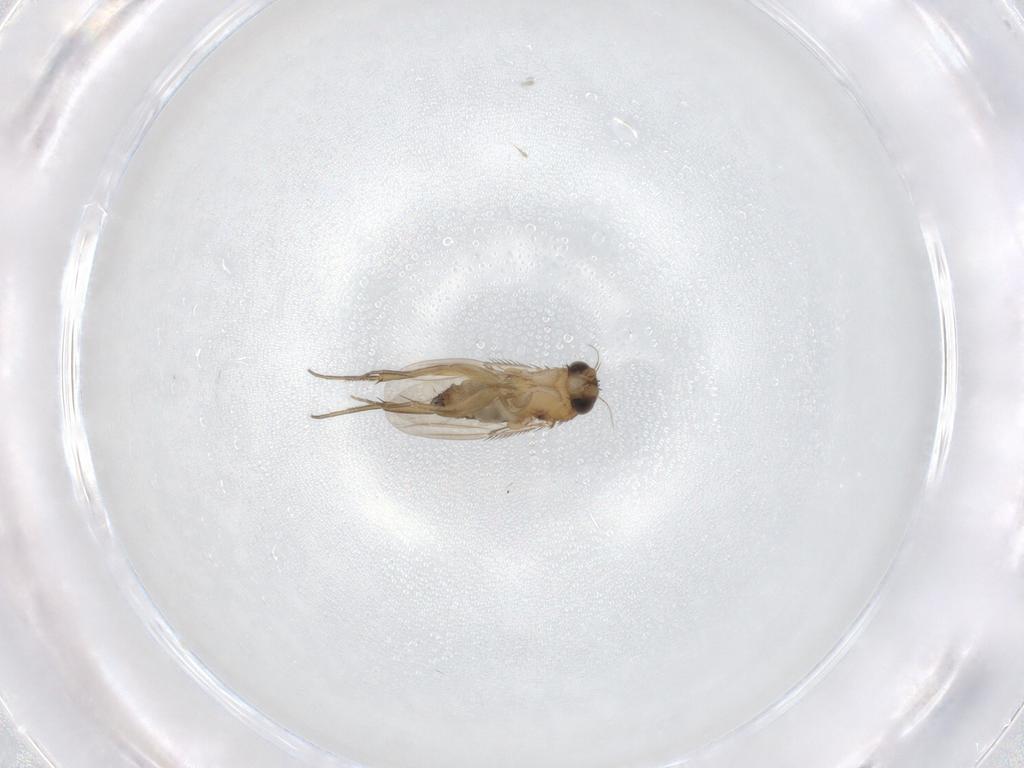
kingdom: Animalia
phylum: Arthropoda
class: Insecta
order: Diptera
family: Phoridae
